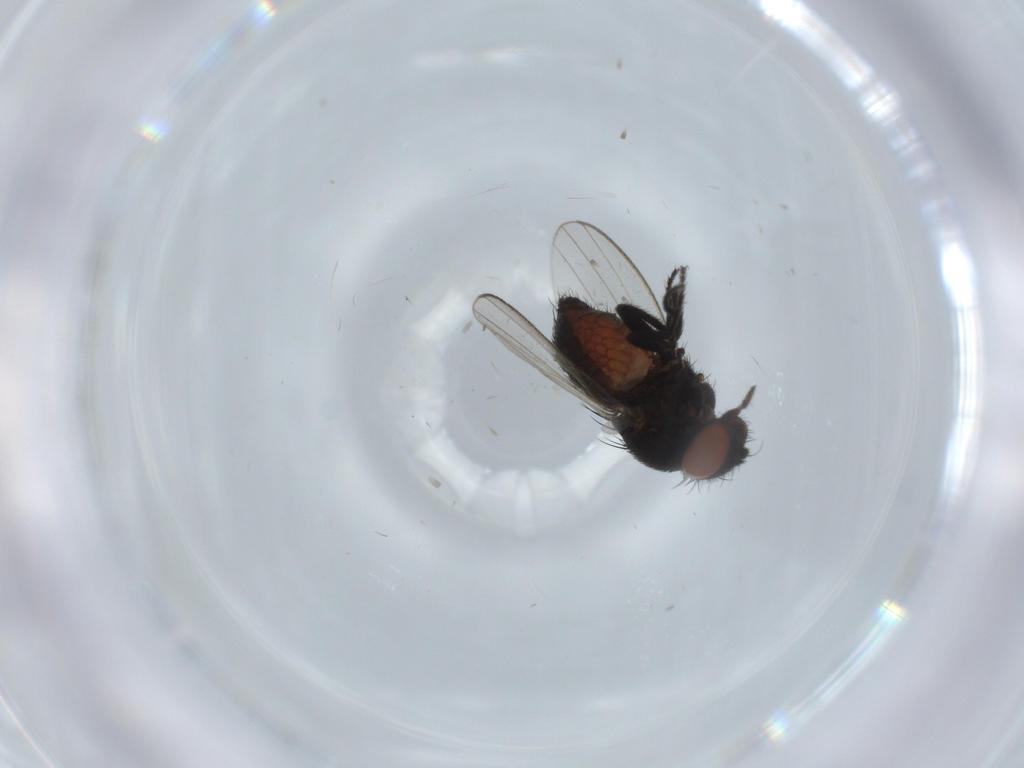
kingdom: Animalia
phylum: Arthropoda
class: Insecta
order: Diptera
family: Milichiidae
